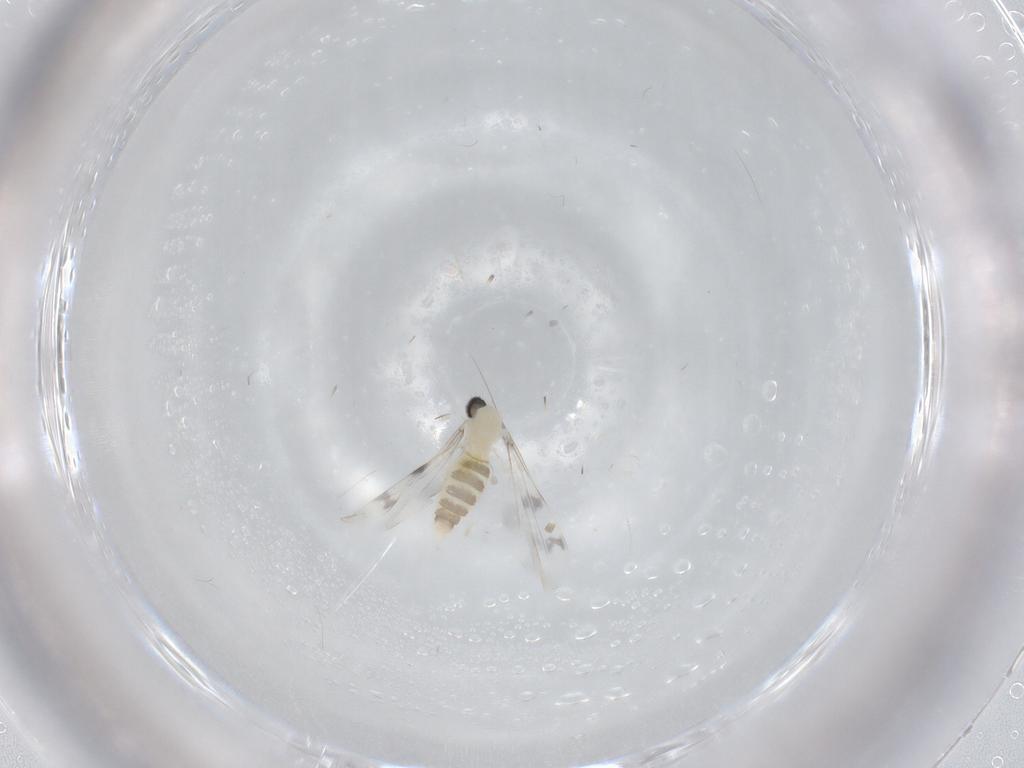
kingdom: Animalia
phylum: Arthropoda
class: Insecta
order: Diptera
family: Cecidomyiidae
